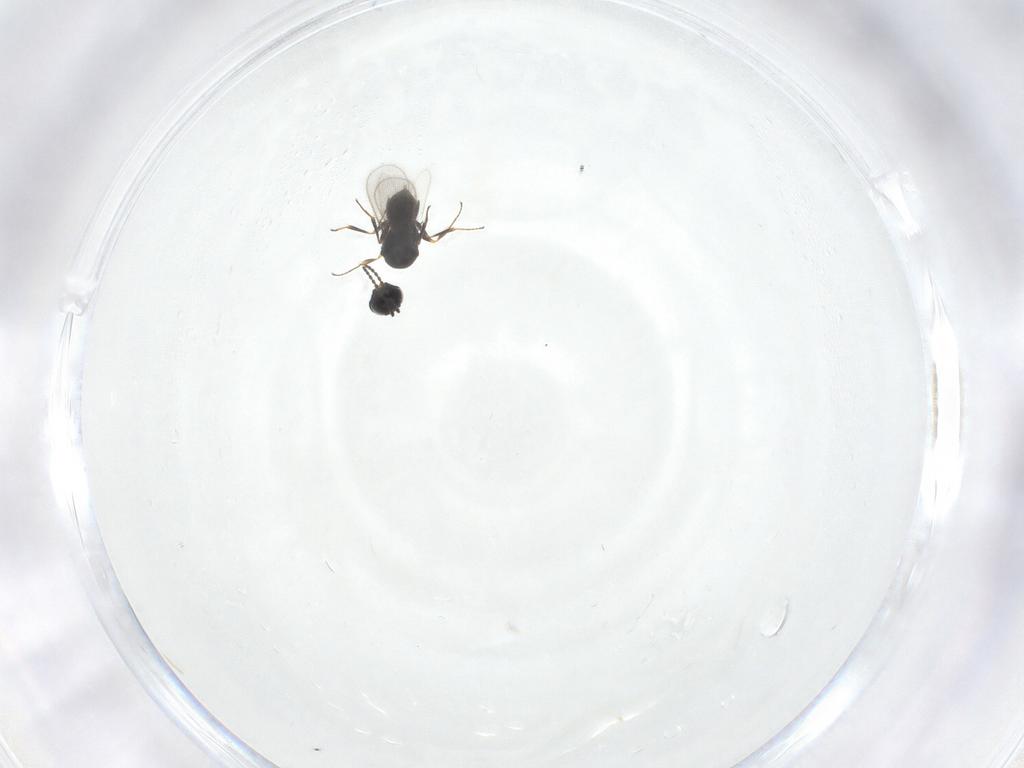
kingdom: Animalia
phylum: Arthropoda
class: Insecta
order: Hymenoptera
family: Scelionidae
